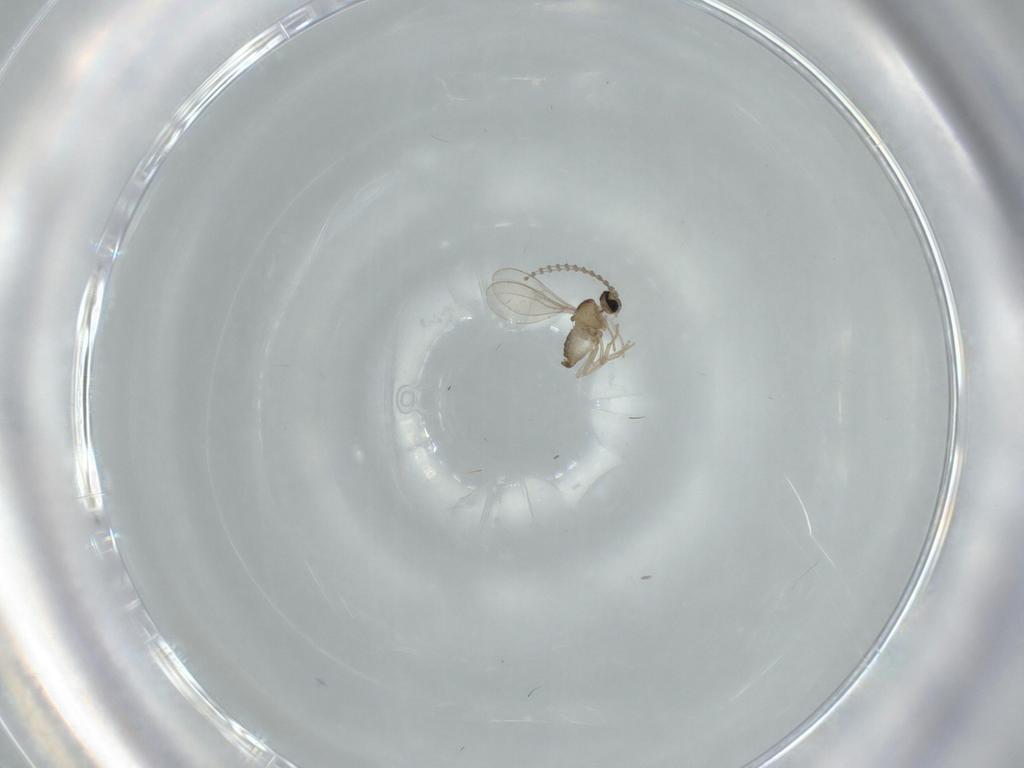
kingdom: Animalia
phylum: Arthropoda
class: Insecta
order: Diptera
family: Cecidomyiidae
